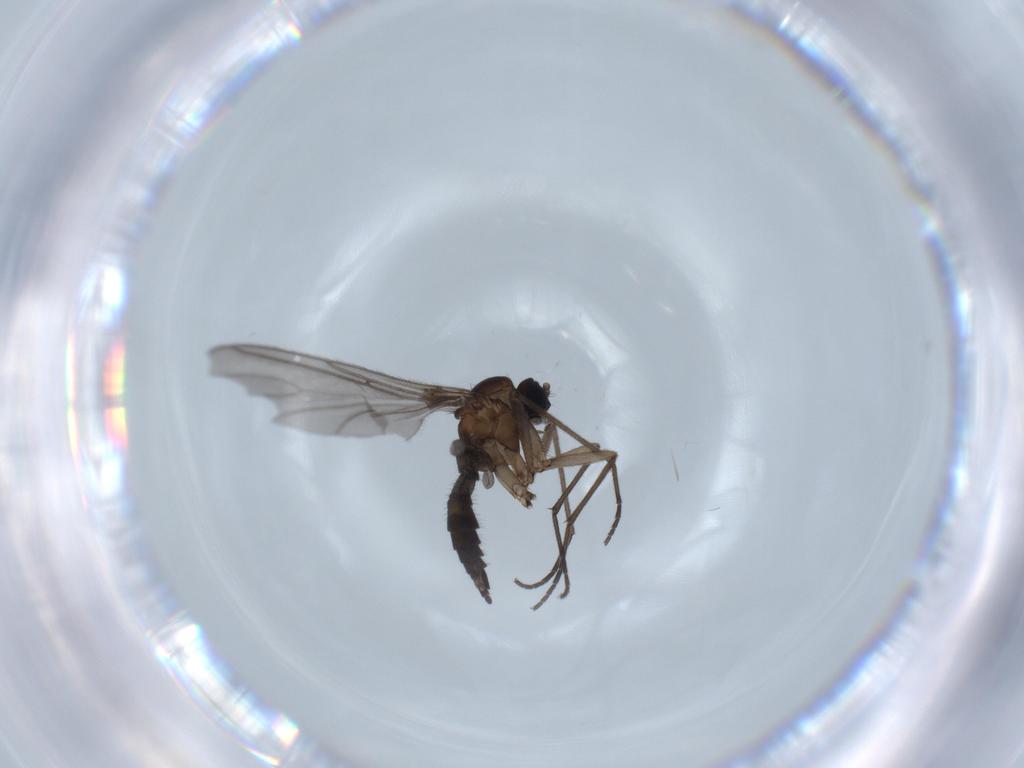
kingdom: Animalia
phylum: Arthropoda
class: Insecta
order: Diptera
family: Sciaridae
